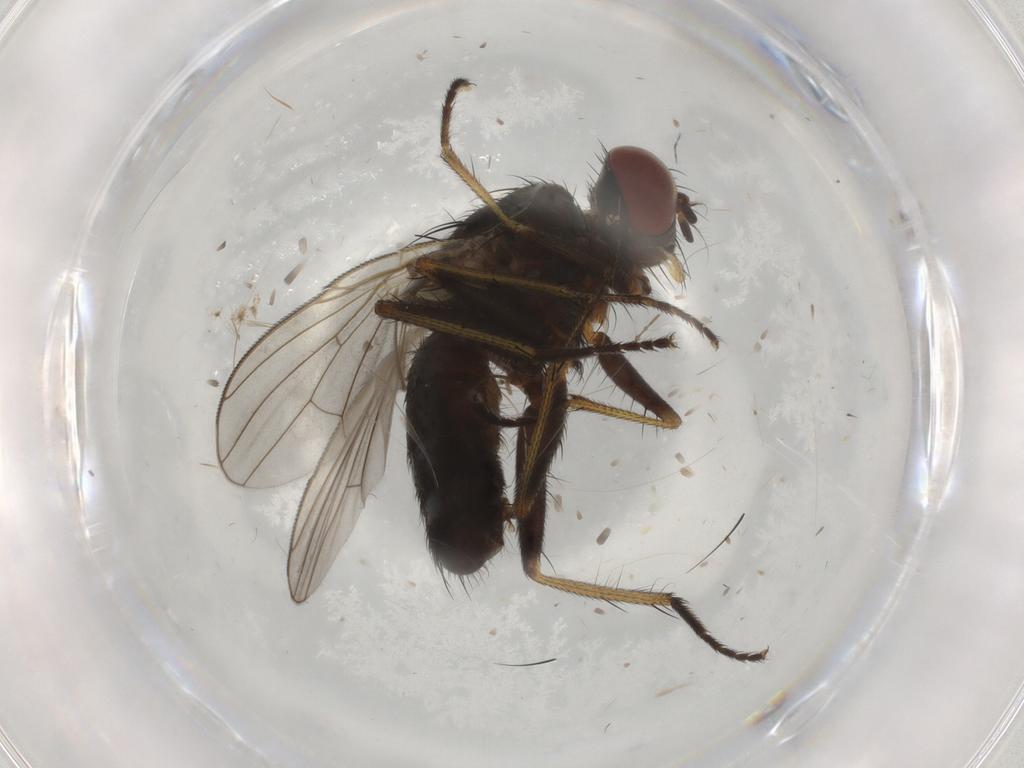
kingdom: Animalia
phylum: Arthropoda
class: Insecta
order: Diptera
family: Muscidae
